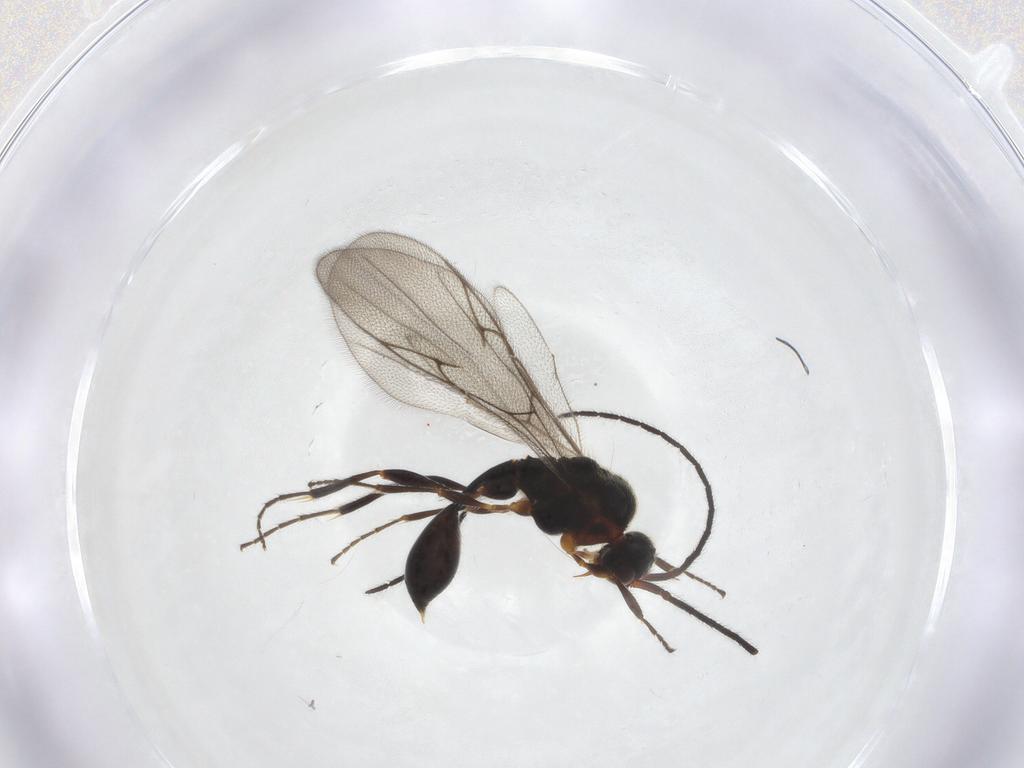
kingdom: Animalia
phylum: Arthropoda
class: Insecta
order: Hymenoptera
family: Diapriidae
